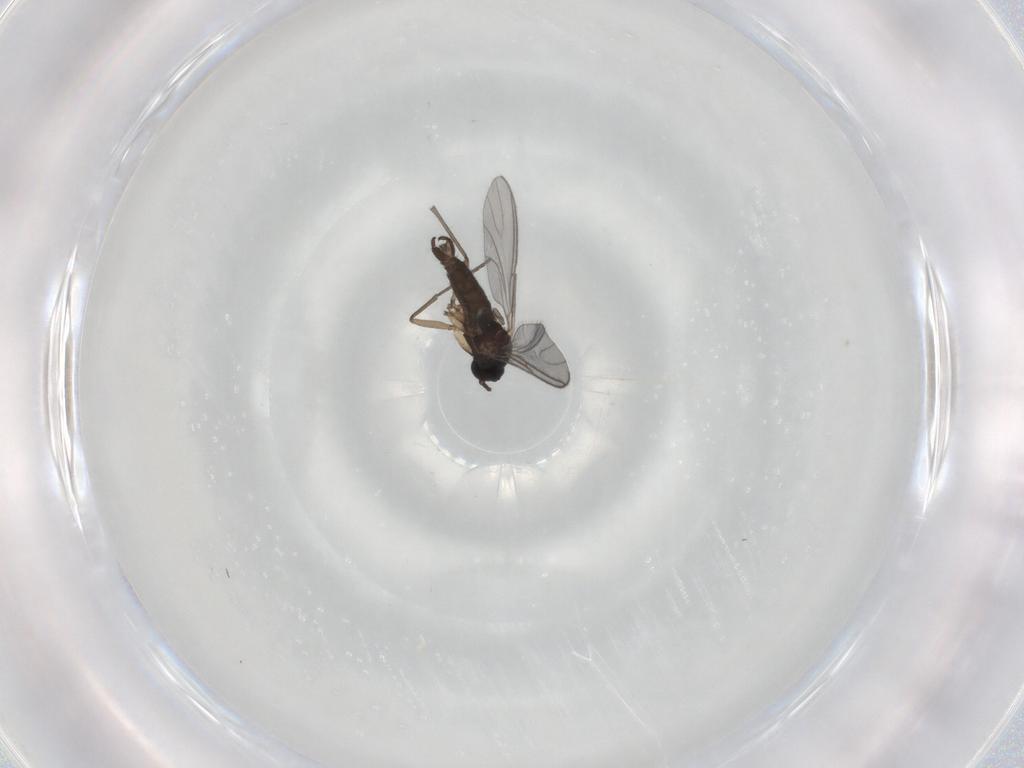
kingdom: Animalia
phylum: Arthropoda
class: Insecta
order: Diptera
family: Sciaridae
